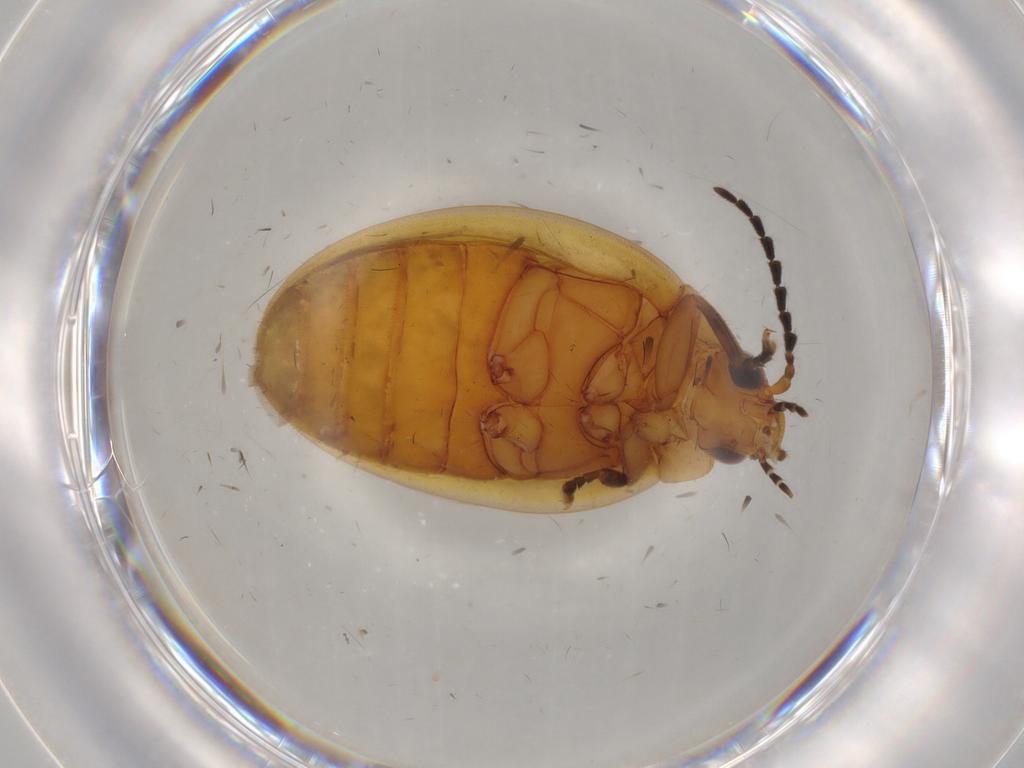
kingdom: Animalia
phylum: Arthropoda
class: Insecta
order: Coleoptera
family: Scirtidae
